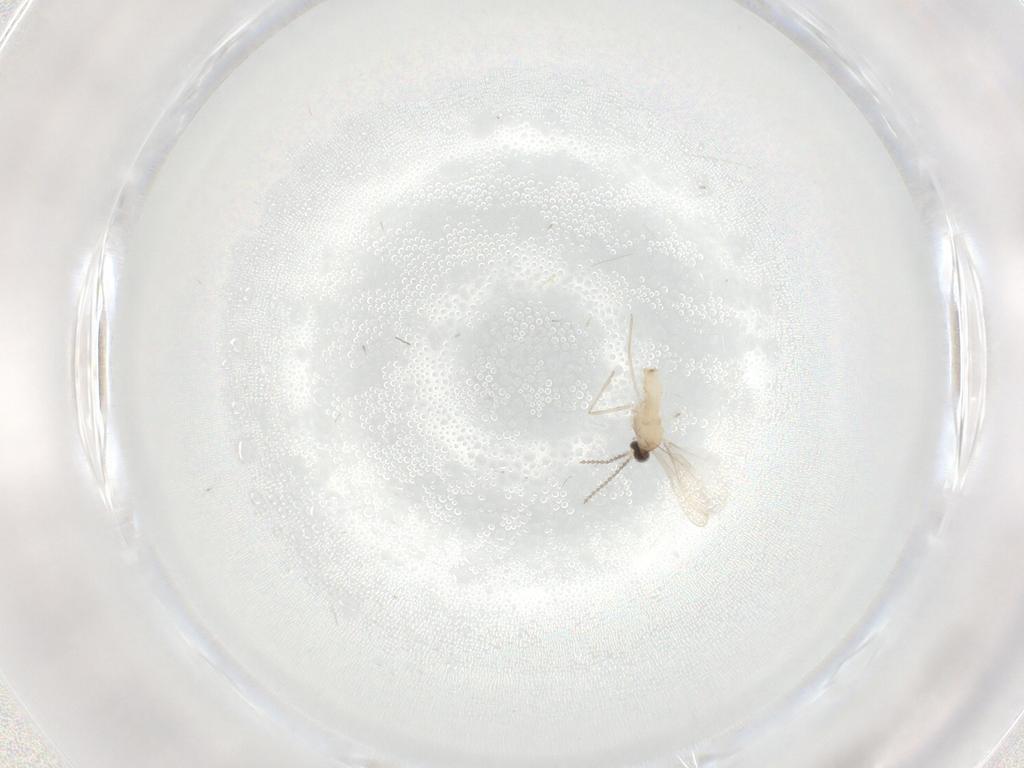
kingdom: Animalia
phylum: Arthropoda
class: Insecta
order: Diptera
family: Cecidomyiidae
